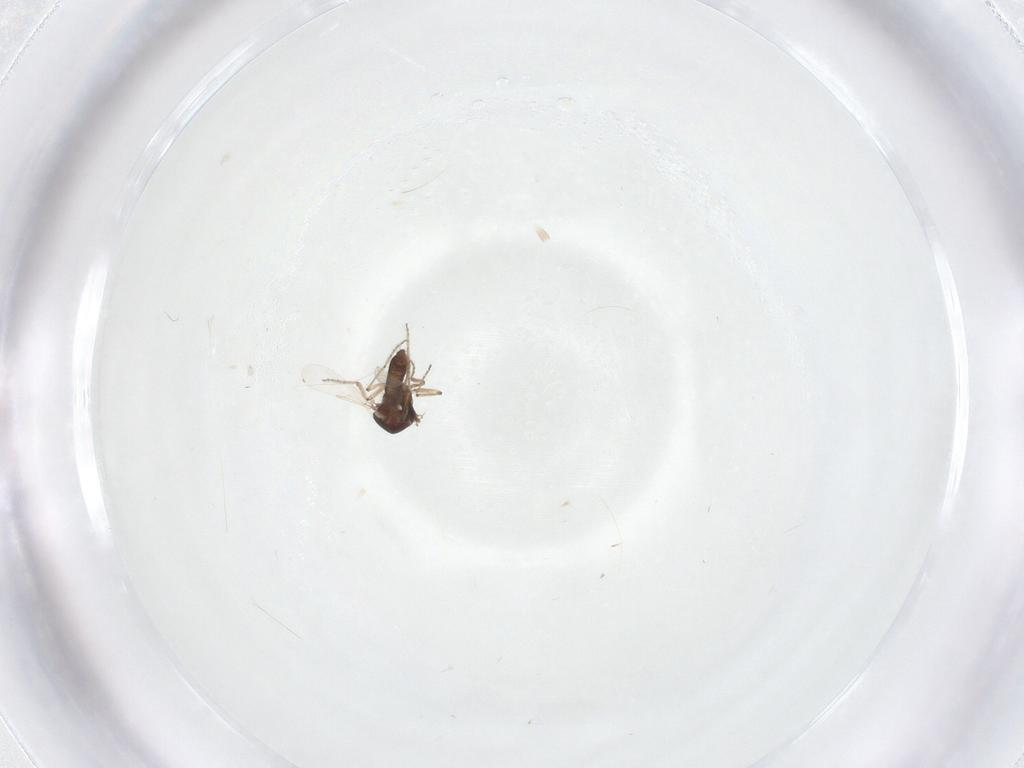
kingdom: Animalia
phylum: Arthropoda
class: Insecta
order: Diptera
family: Ceratopogonidae
